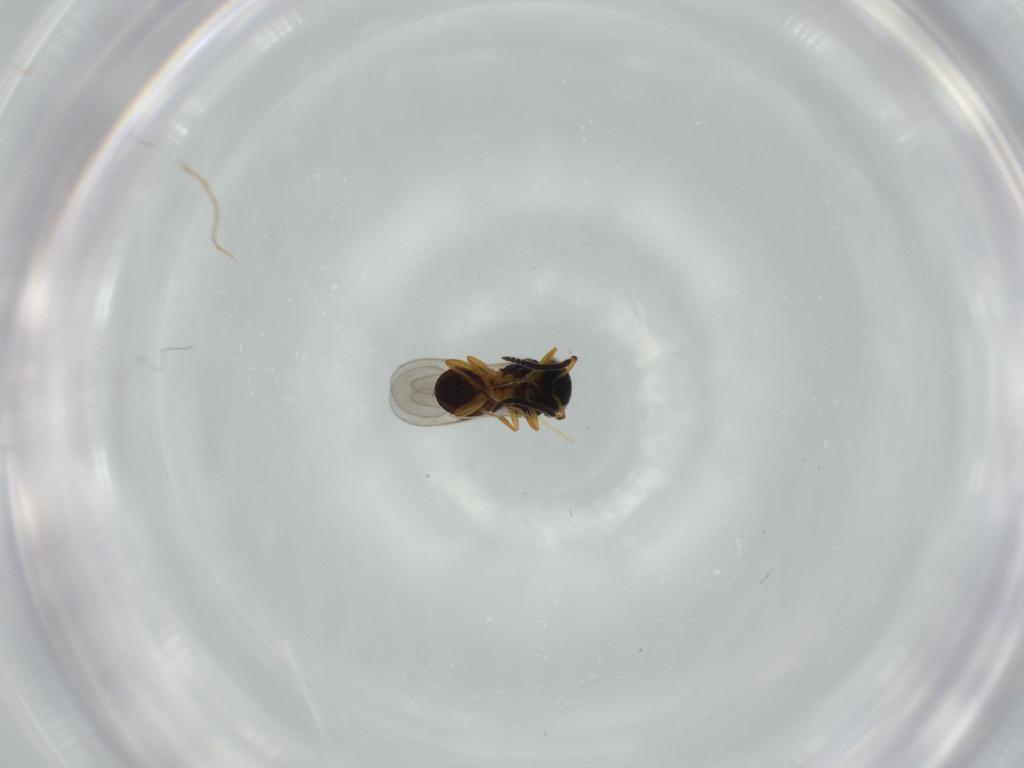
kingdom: Animalia
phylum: Arthropoda
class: Insecta
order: Coleoptera
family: Curculionidae
